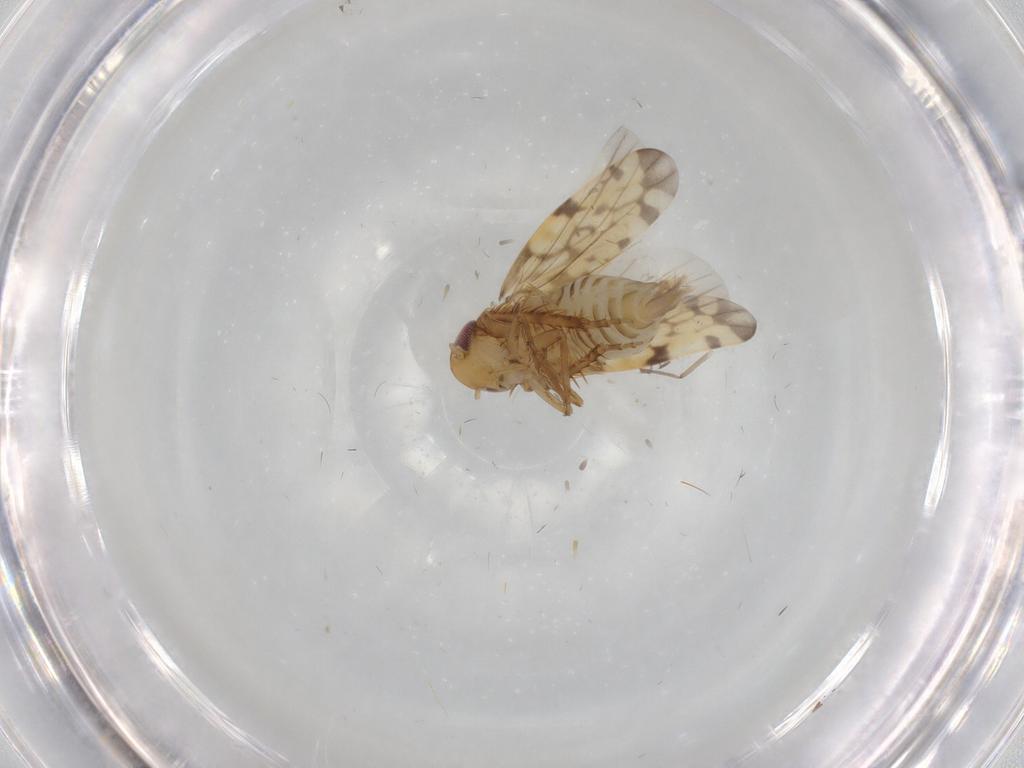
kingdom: Animalia
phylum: Arthropoda
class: Insecta
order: Hemiptera
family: Cicadellidae
